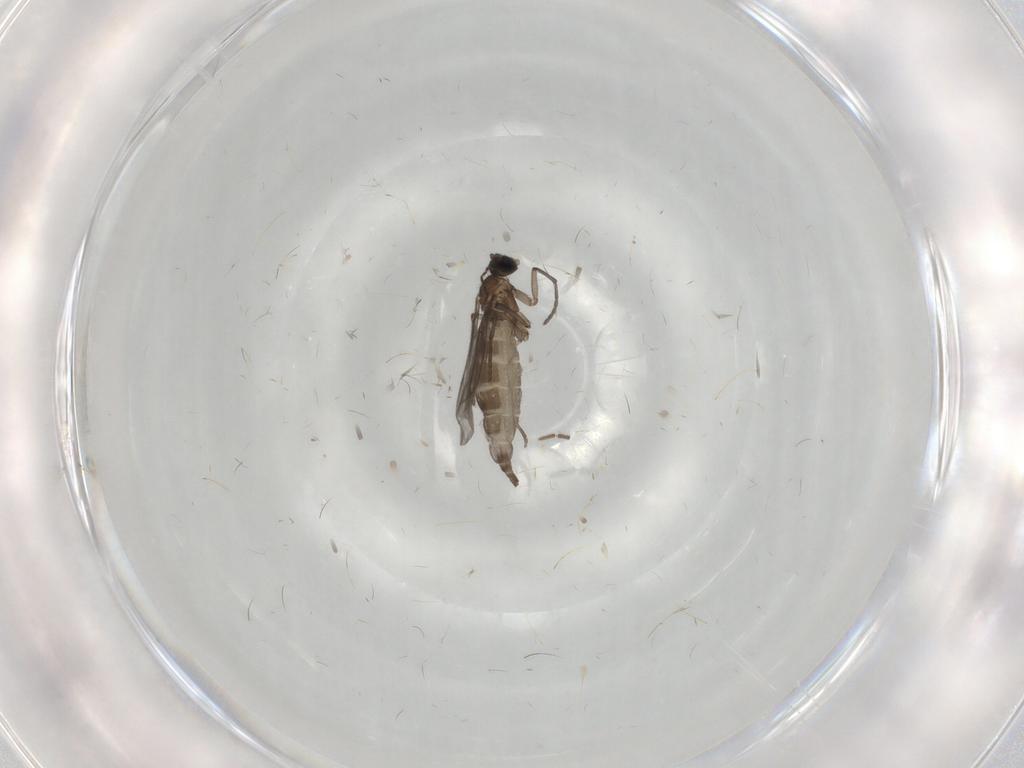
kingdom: Animalia
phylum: Arthropoda
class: Insecta
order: Diptera
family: Sciaridae
